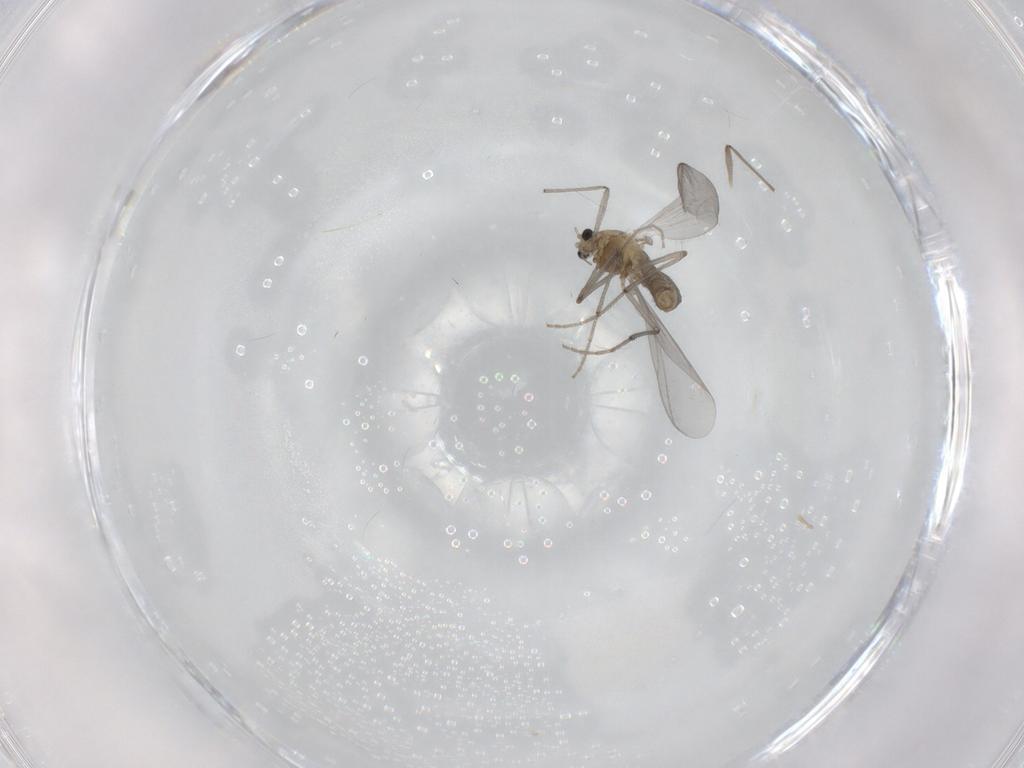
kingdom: Animalia
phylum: Arthropoda
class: Insecta
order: Diptera
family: Chironomidae
